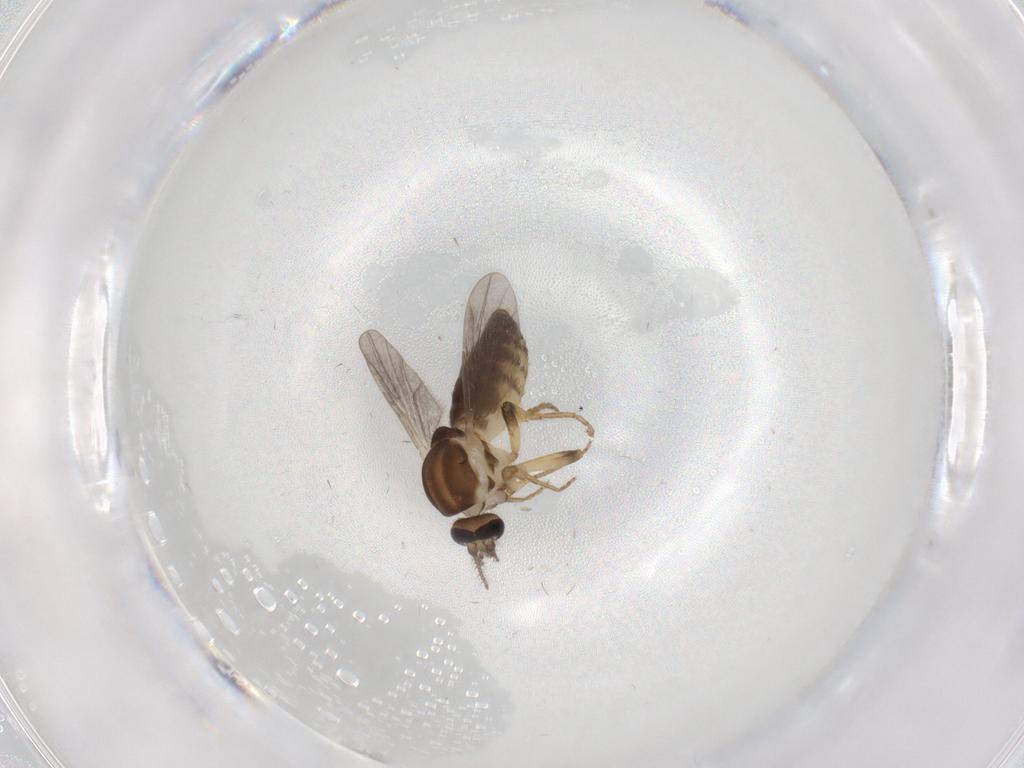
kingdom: Animalia
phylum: Arthropoda
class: Insecta
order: Diptera
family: Ceratopogonidae
